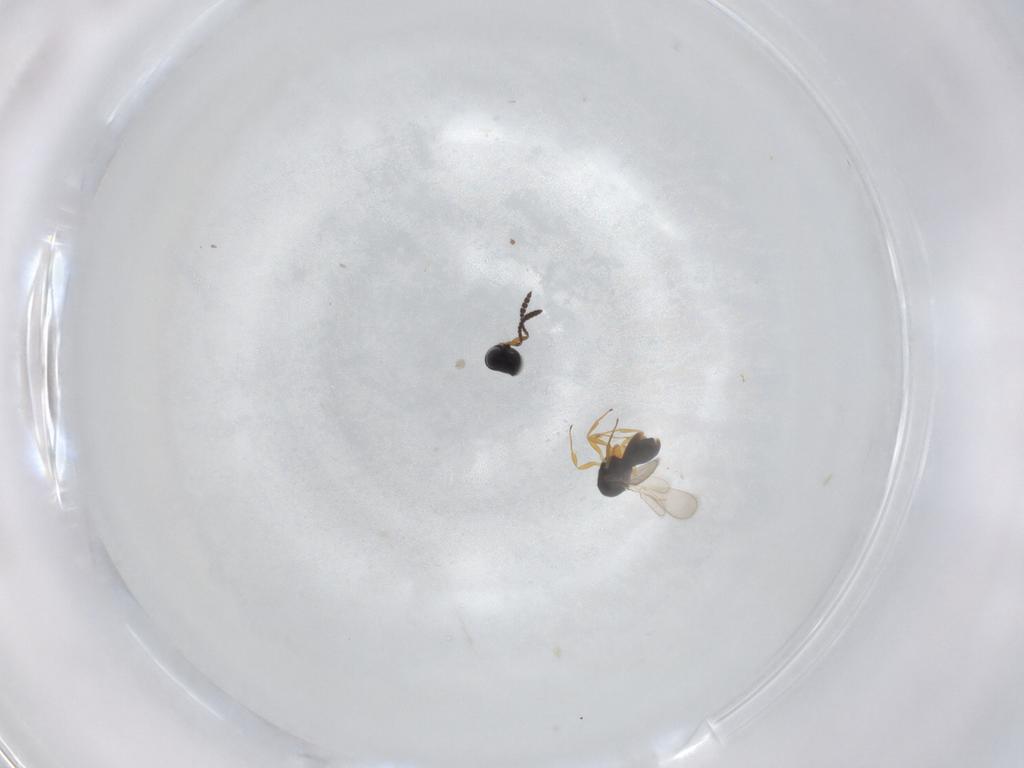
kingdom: Animalia
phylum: Arthropoda
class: Insecta
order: Hymenoptera
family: Scelionidae
